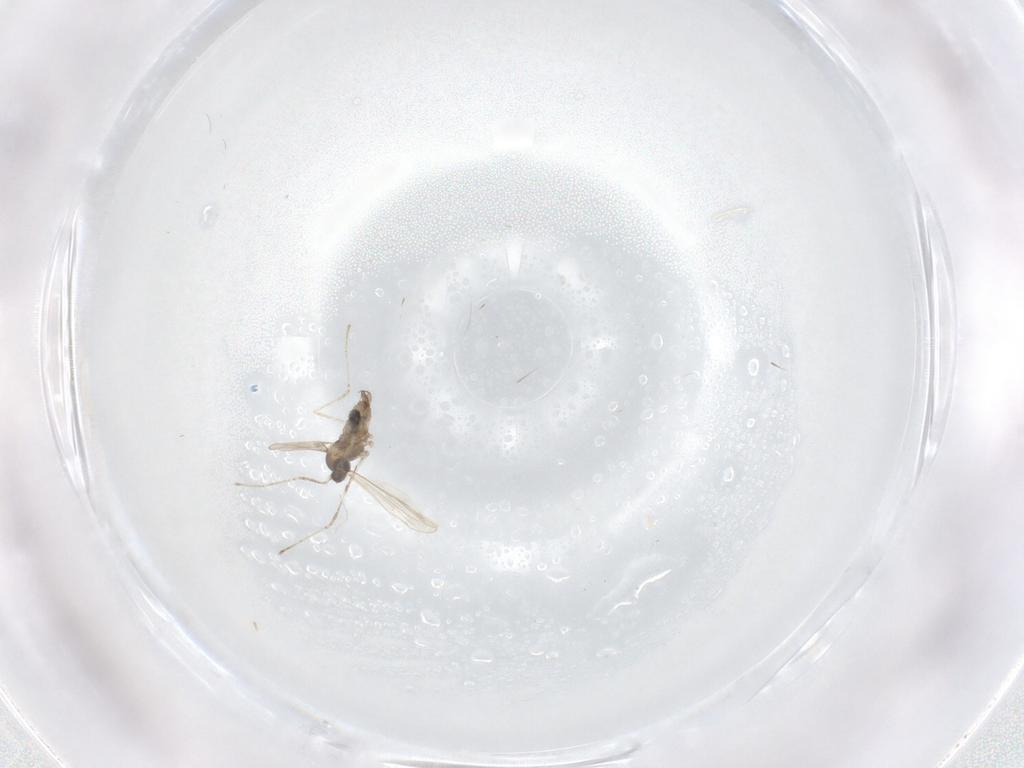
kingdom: Animalia
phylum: Arthropoda
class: Insecta
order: Diptera
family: Cecidomyiidae
